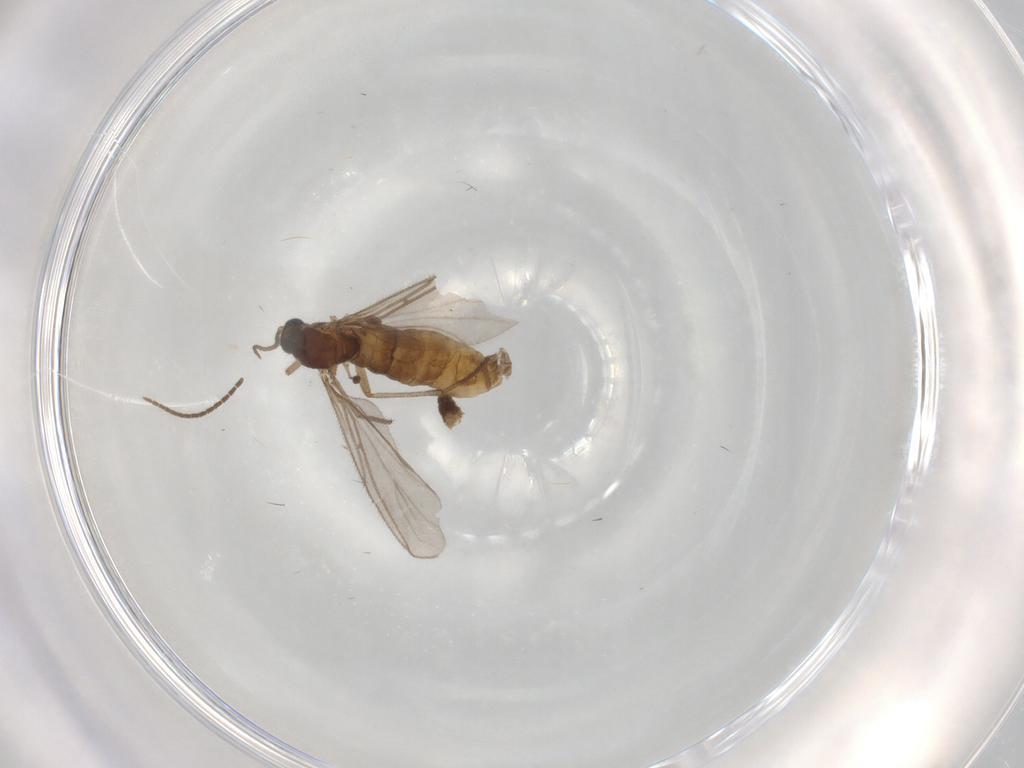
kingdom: Animalia
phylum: Arthropoda
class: Insecta
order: Diptera
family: Sciaridae
